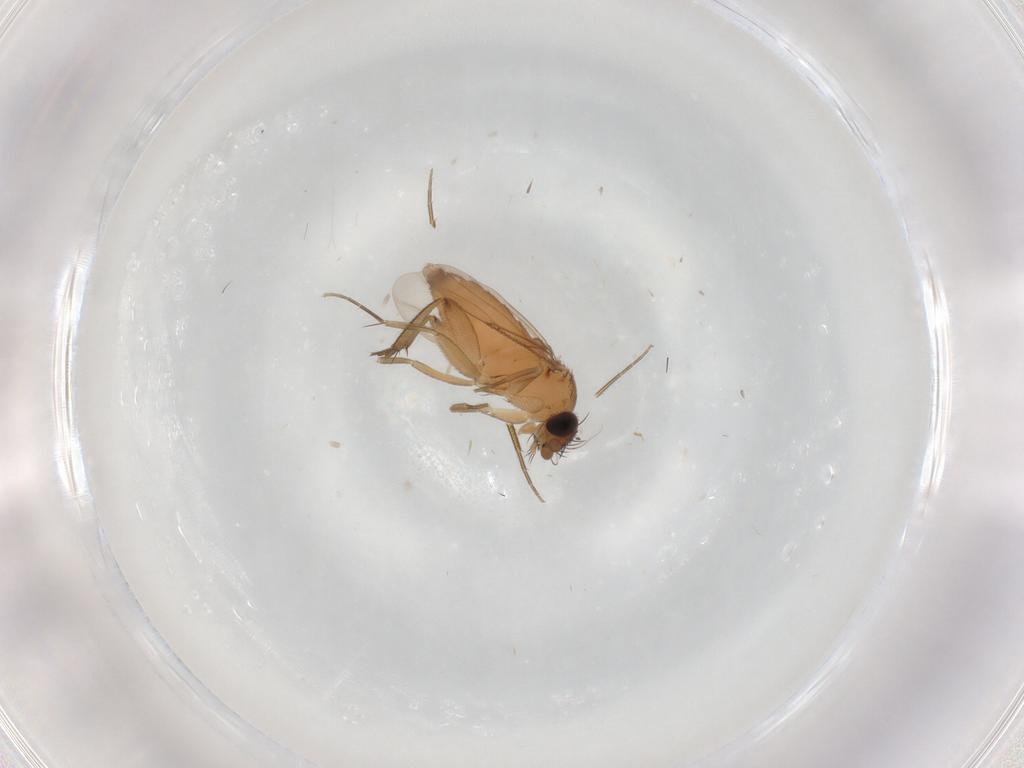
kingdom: Animalia
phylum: Arthropoda
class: Insecta
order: Diptera
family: Phoridae
